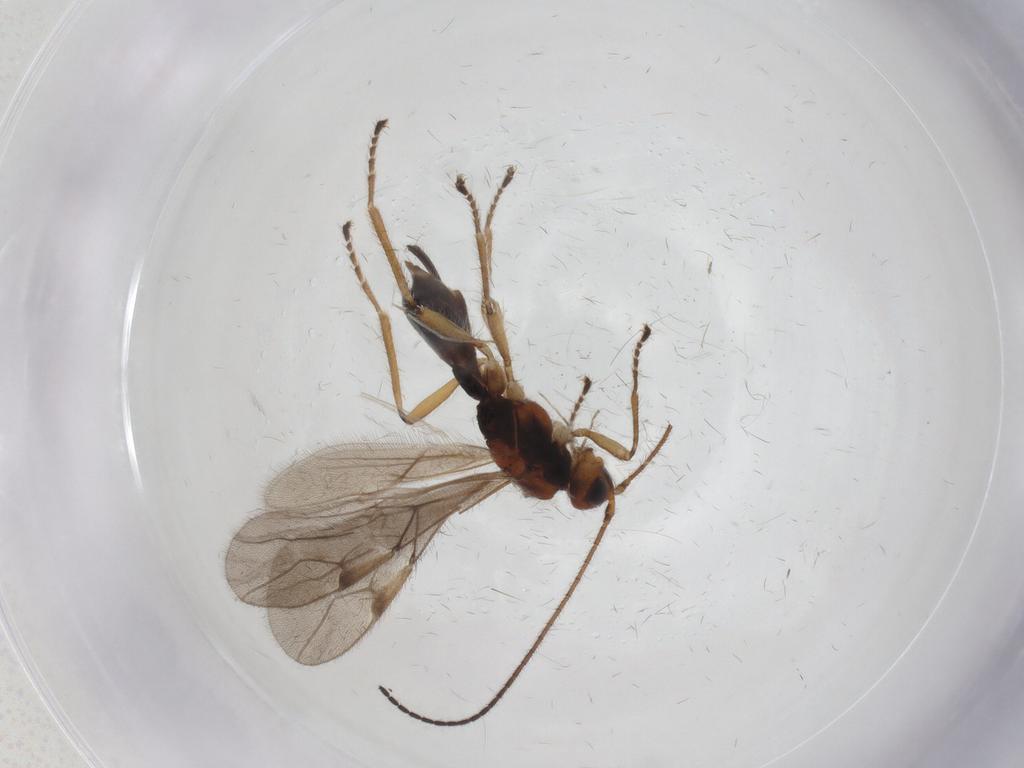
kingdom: Animalia
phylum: Arthropoda
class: Insecta
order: Hymenoptera
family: Braconidae
